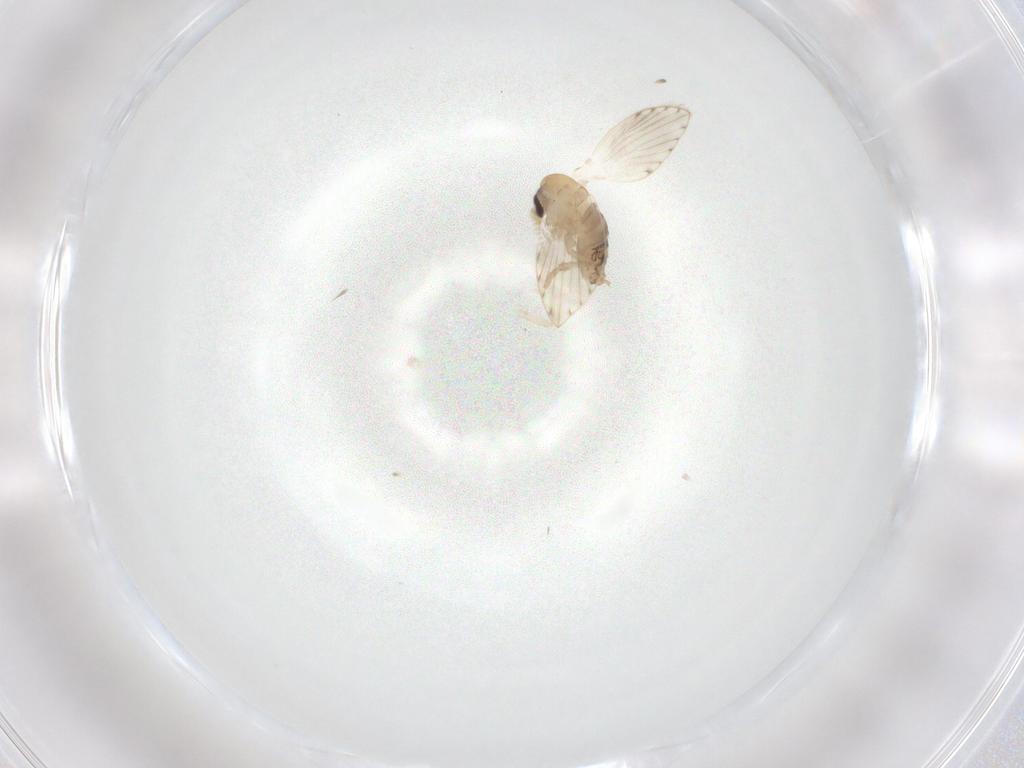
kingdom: Animalia
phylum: Arthropoda
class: Insecta
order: Diptera
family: Psychodidae
